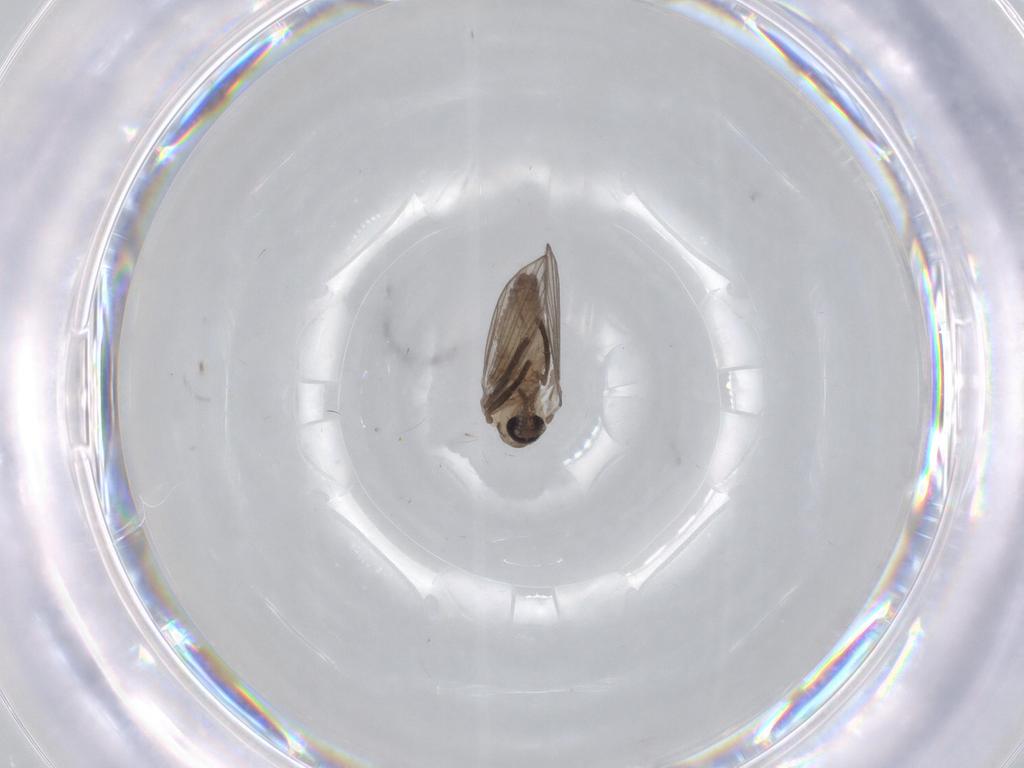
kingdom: Animalia
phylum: Arthropoda
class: Insecta
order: Diptera
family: Psychodidae
